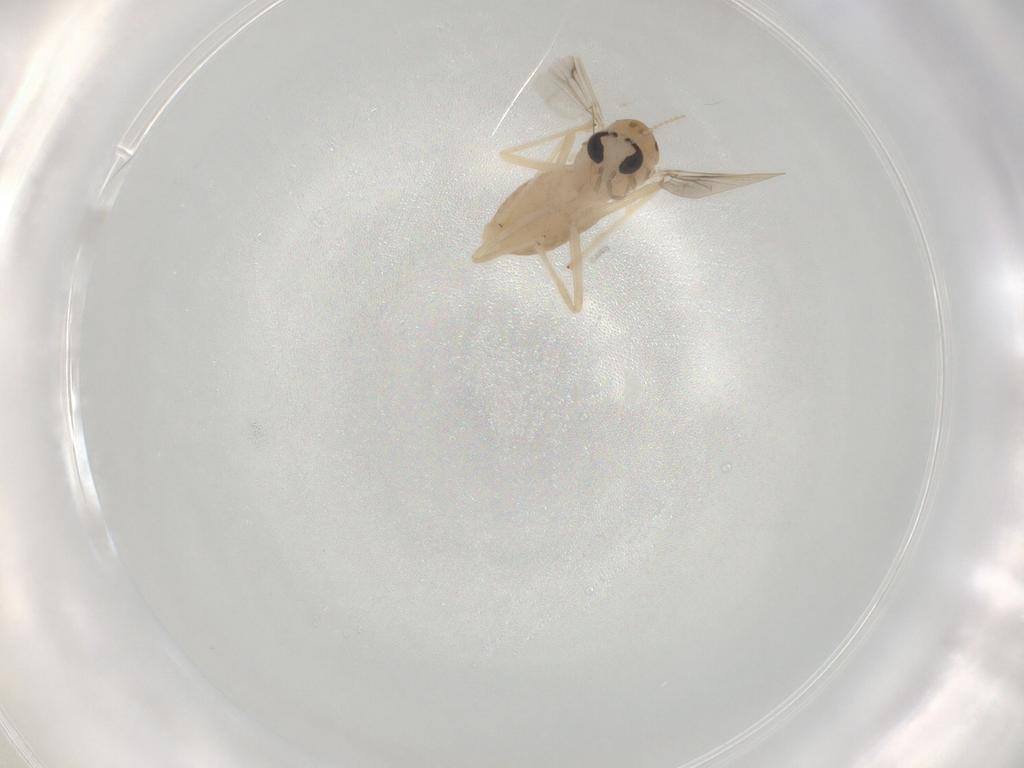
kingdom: Animalia
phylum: Arthropoda
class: Insecta
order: Diptera
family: Chironomidae
